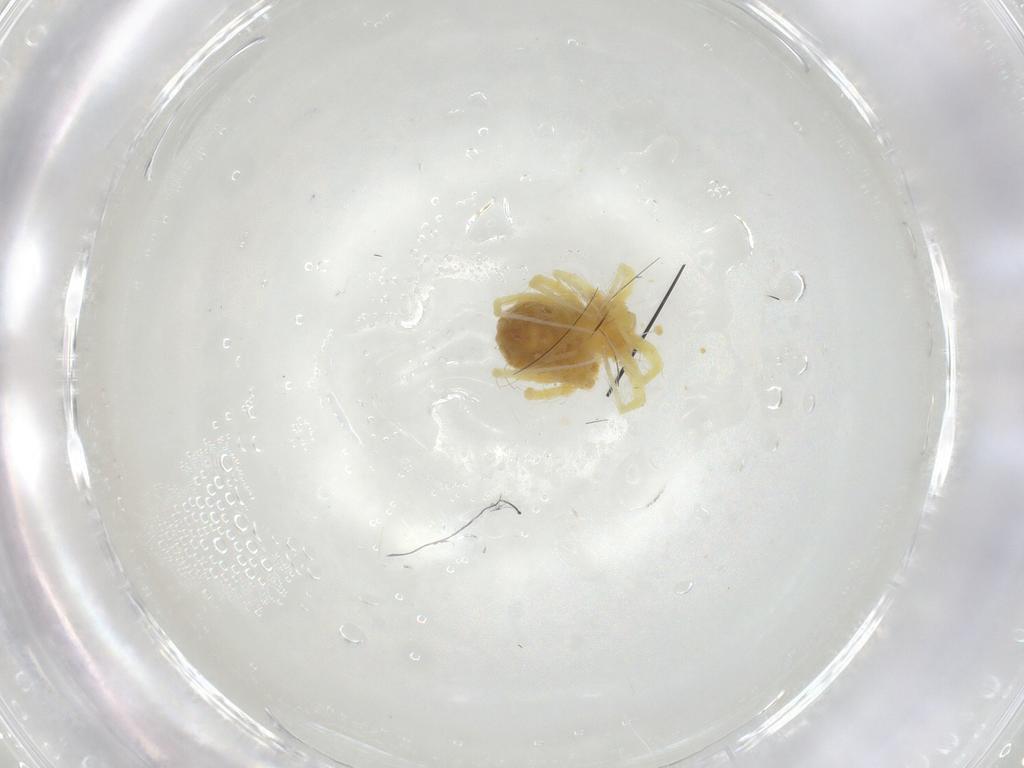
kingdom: Animalia
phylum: Arthropoda
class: Arachnida
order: Trombidiformes
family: Anystidae
